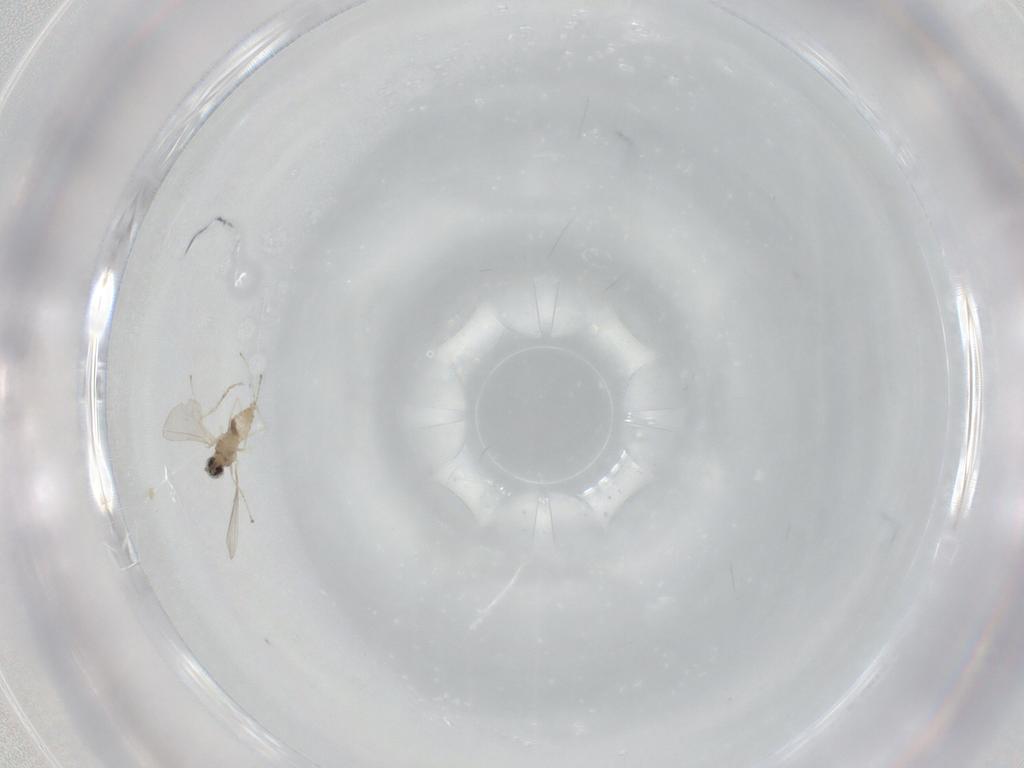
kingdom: Animalia
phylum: Arthropoda
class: Insecta
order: Diptera
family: Cecidomyiidae
